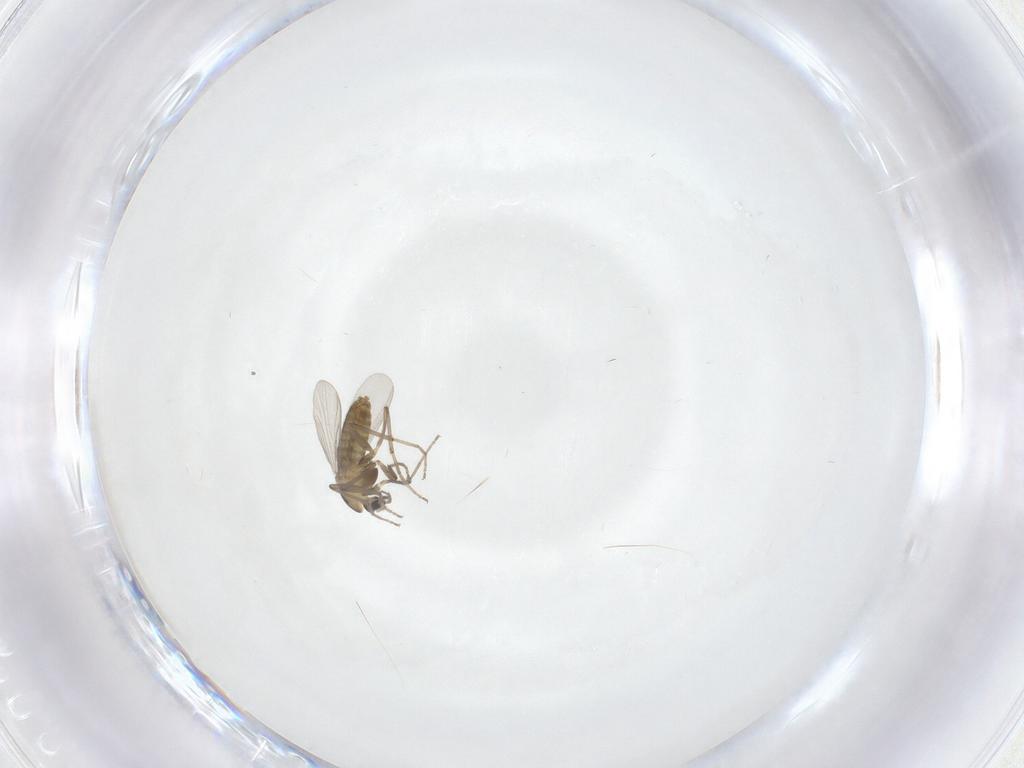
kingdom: Animalia
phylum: Arthropoda
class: Insecta
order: Diptera
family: Chironomidae
